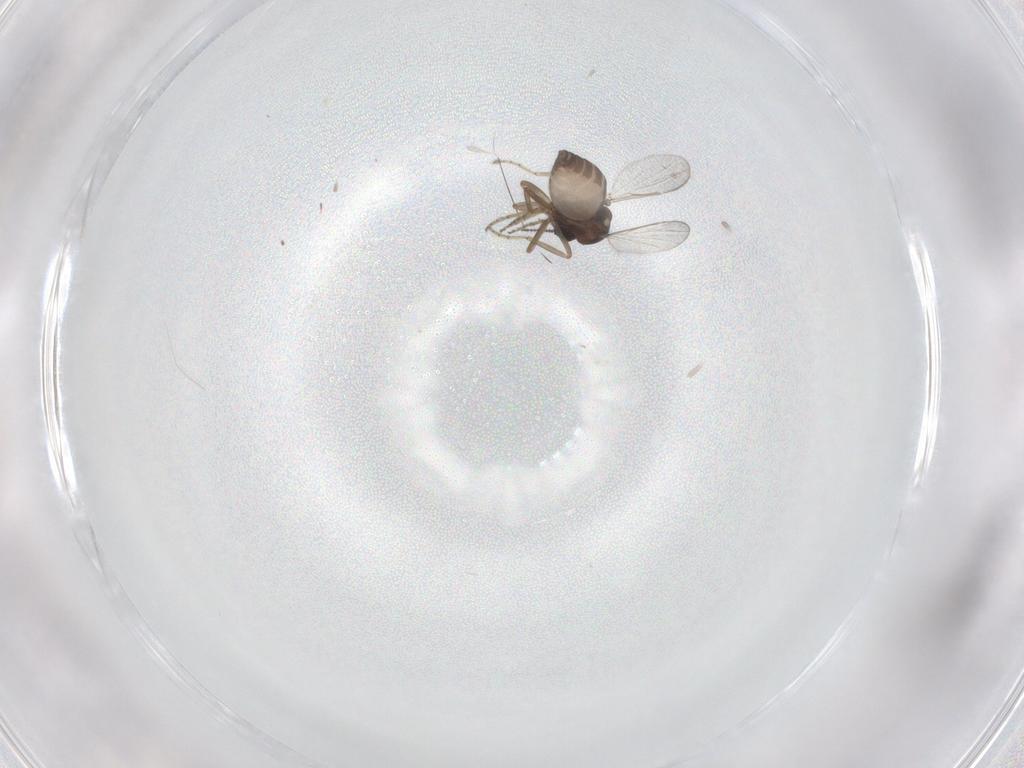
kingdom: Animalia
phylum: Arthropoda
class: Insecta
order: Diptera
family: Ceratopogonidae
